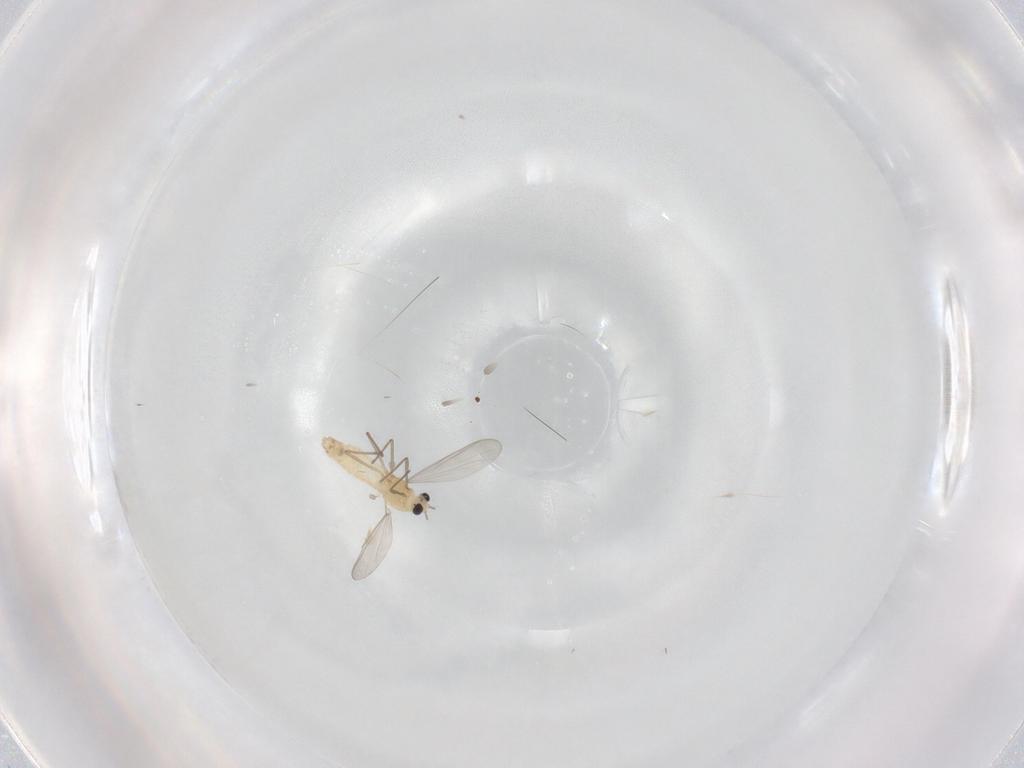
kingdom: Animalia
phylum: Arthropoda
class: Insecta
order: Diptera
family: Chironomidae
